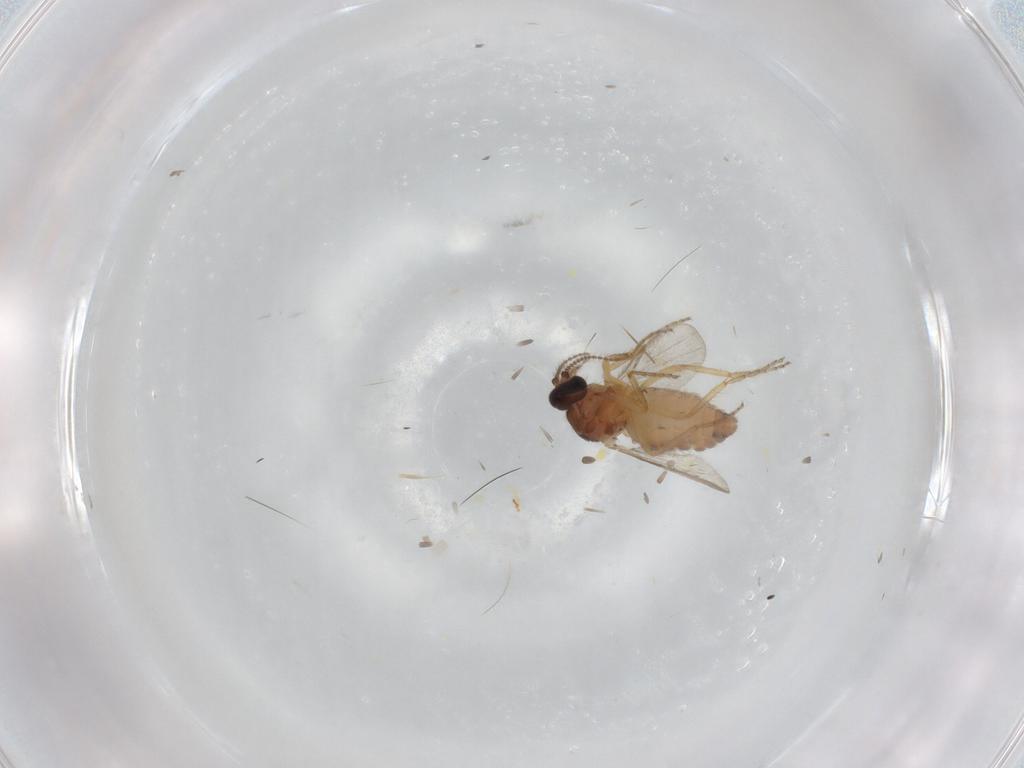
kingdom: Animalia
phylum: Arthropoda
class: Insecta
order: Diptera
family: Ceratopogonidae
